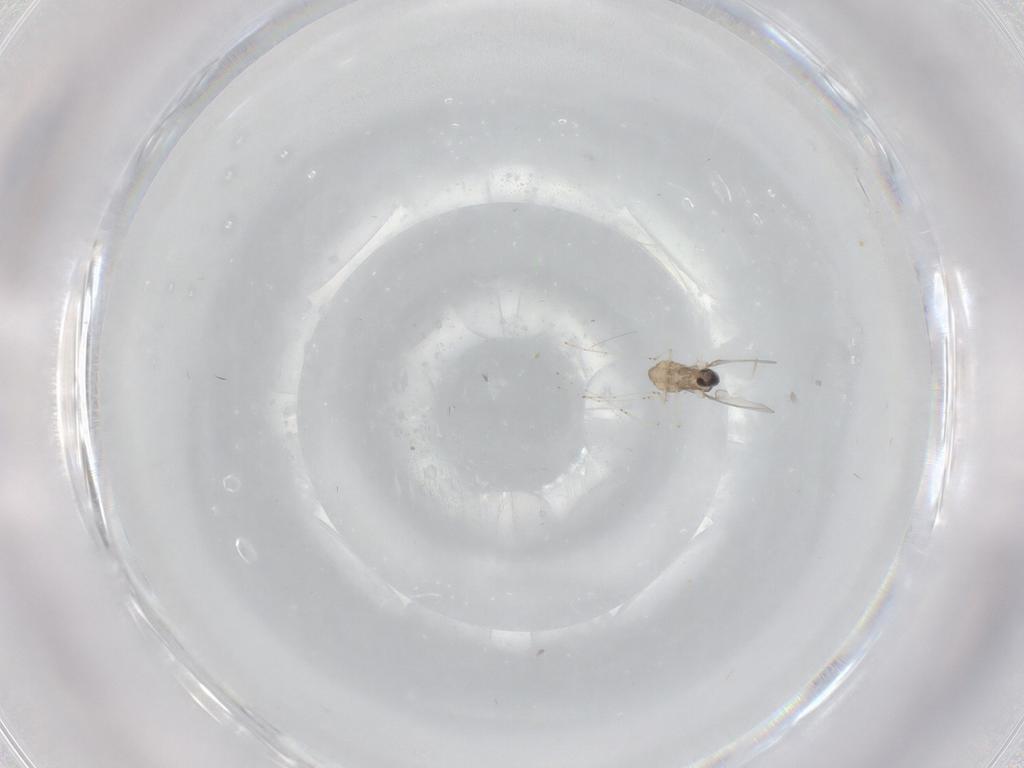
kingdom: Animalia
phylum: Arthropoda
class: Insecta
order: Diptera
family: Cecidomyiidae
